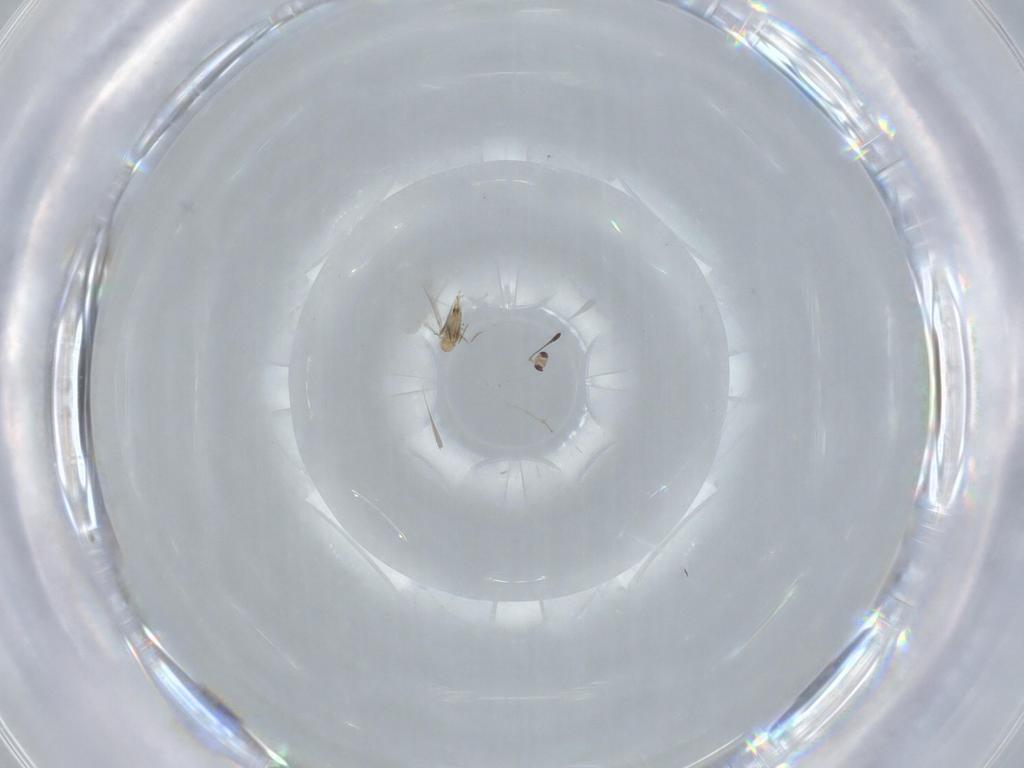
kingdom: Animalia
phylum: Arthropoda
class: Insecta
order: Hymenoptera
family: Mymaridae
